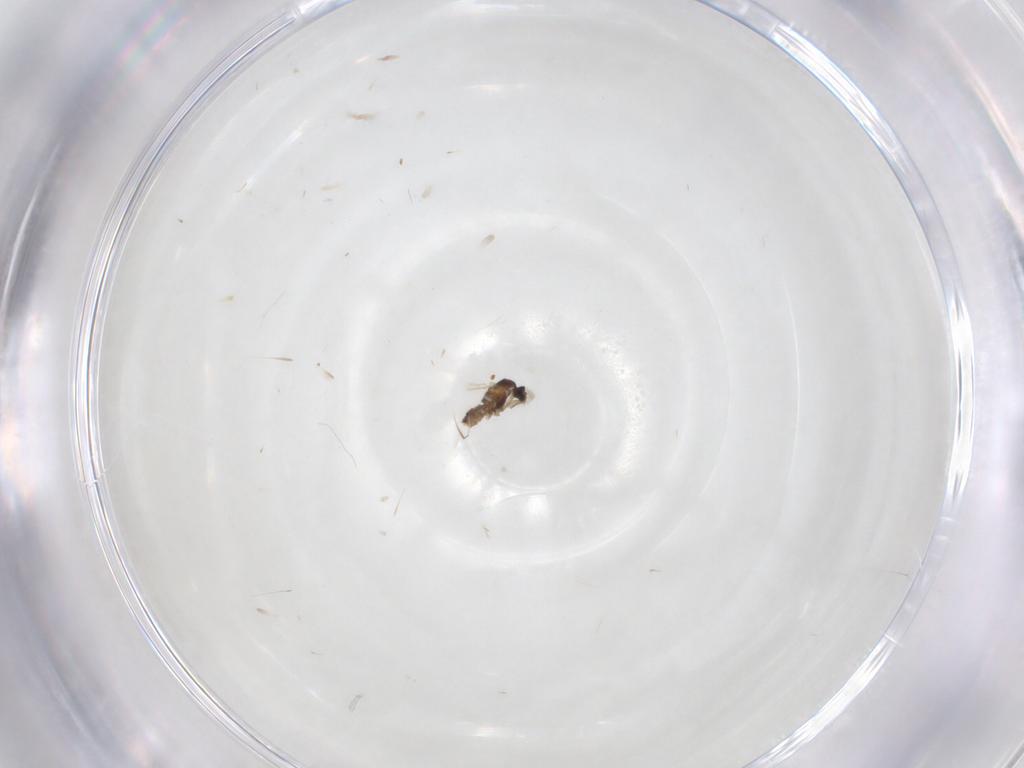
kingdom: Animalia
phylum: Arthropoda
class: Insecta
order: Diptera
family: Cecidomyiidae
